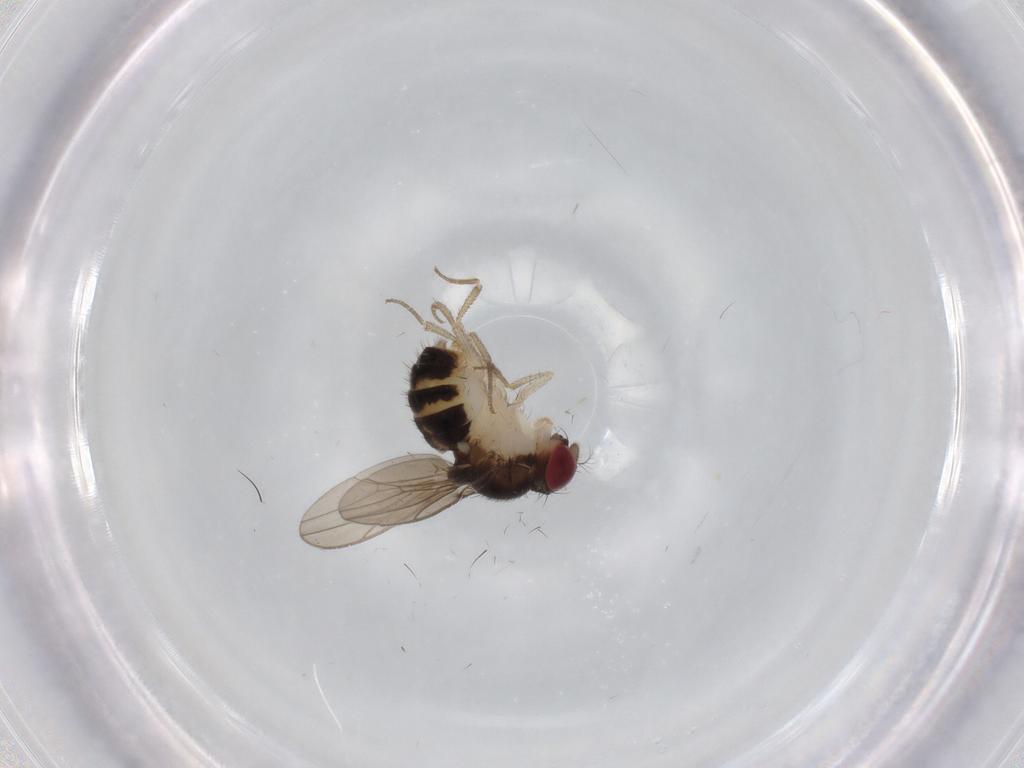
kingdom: Animalia
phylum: Arthropoda
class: Insecta
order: Diptera
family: Drosophilidae
